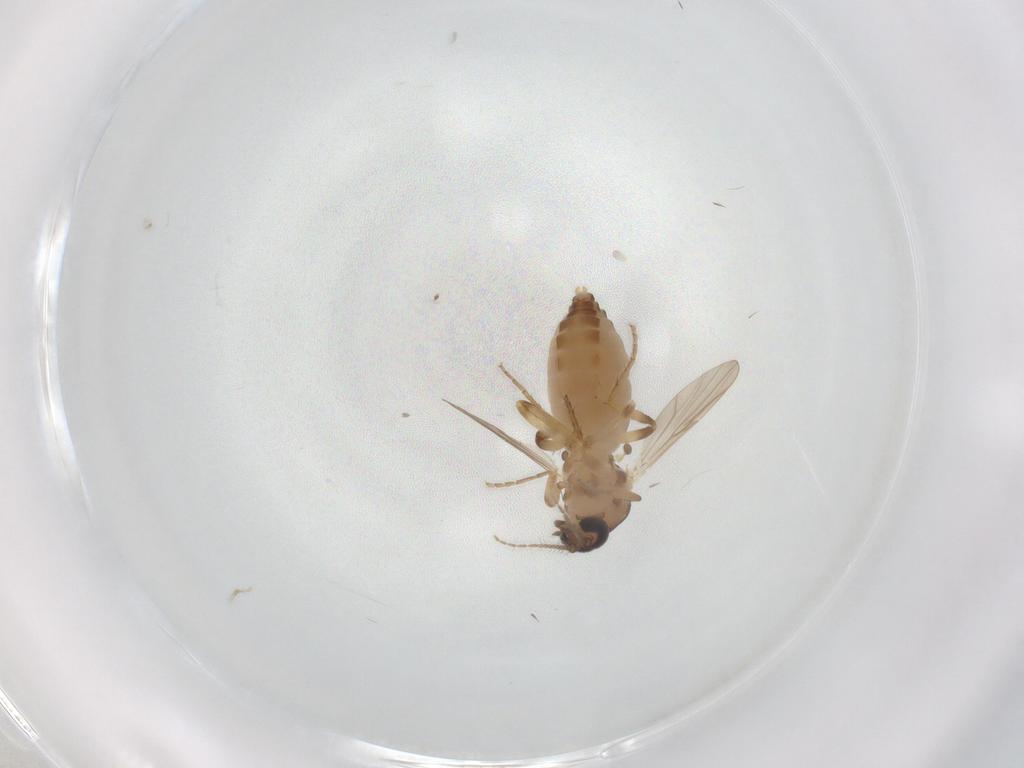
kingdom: Animalia
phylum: Arthropoda
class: Insecta
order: Diptera
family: Ceratopogonidae
